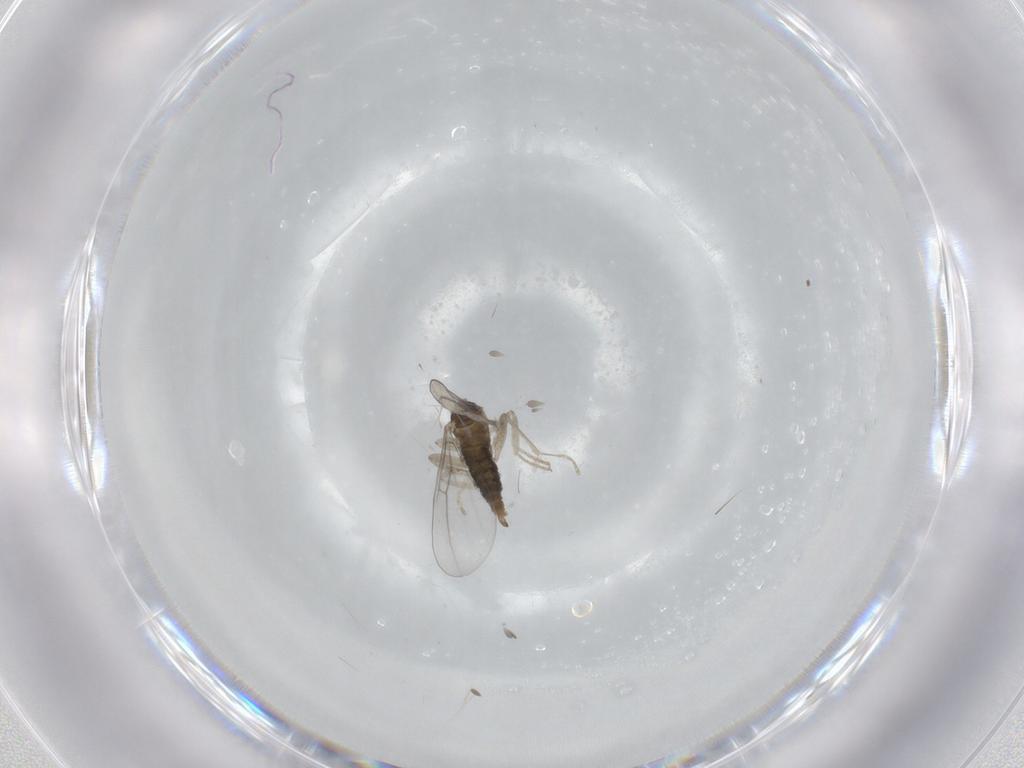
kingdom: Animalia
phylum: Arthropoda
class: Insecta
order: Diptera
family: Cecidomyiidae
